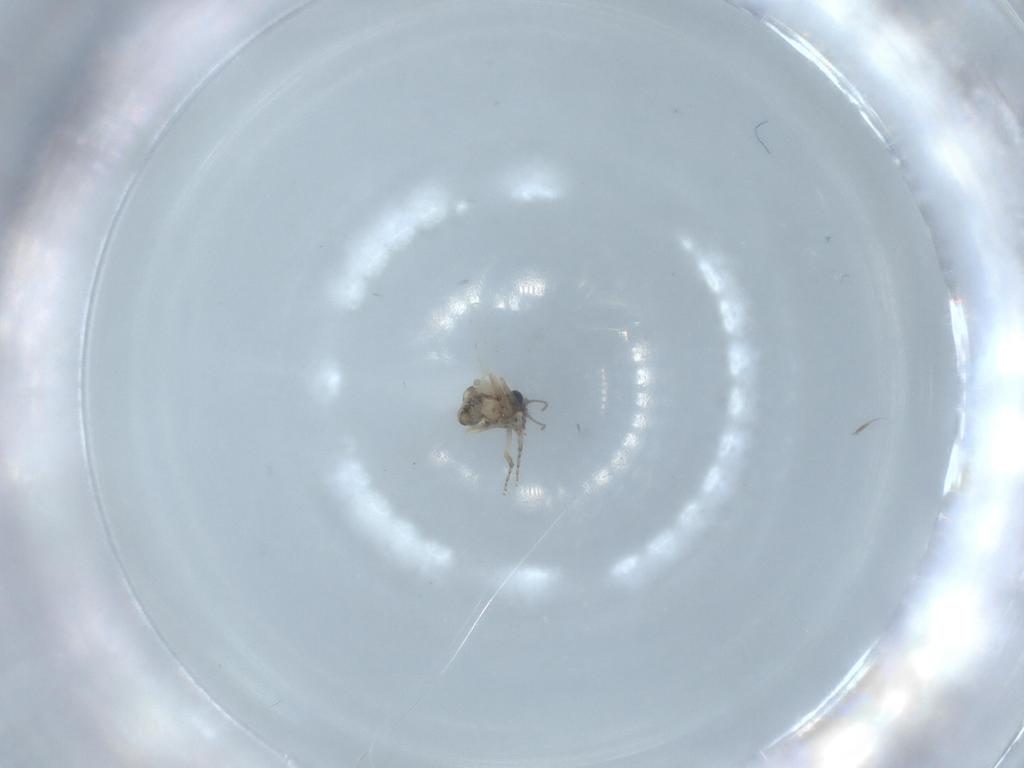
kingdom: Animalia
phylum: Arthropoda
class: Insecta
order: Diptera
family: Ceratopogonidae
